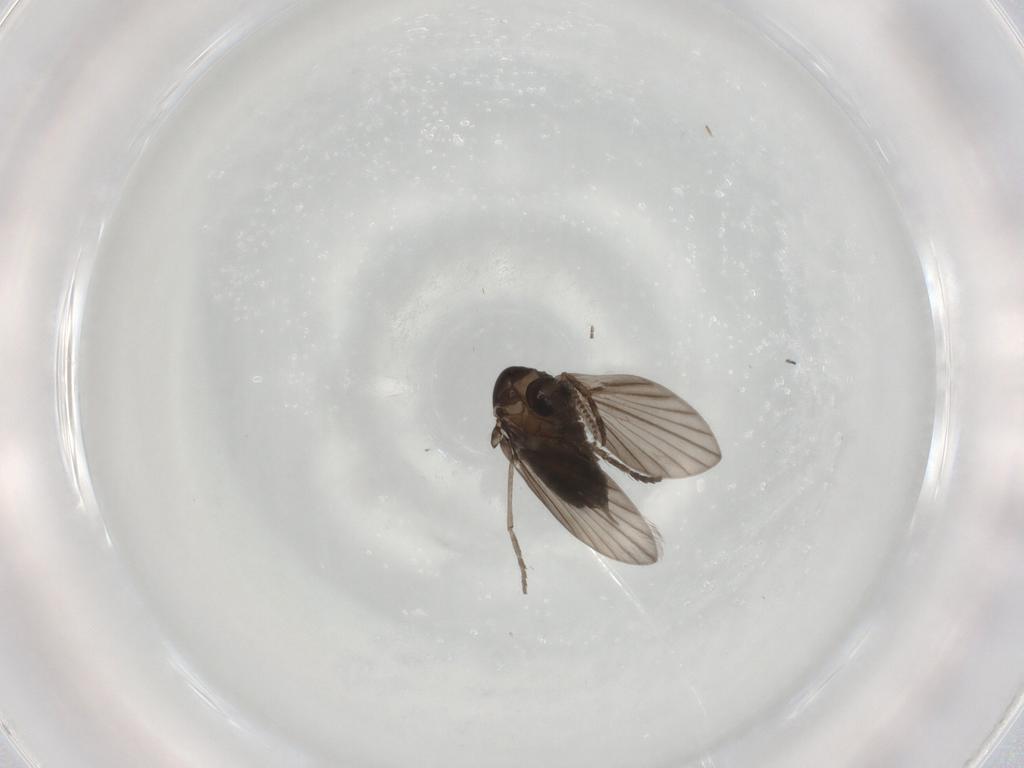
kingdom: Animalia
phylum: Arthropoda
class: Insecta
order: Diptera
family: Psychodidae
